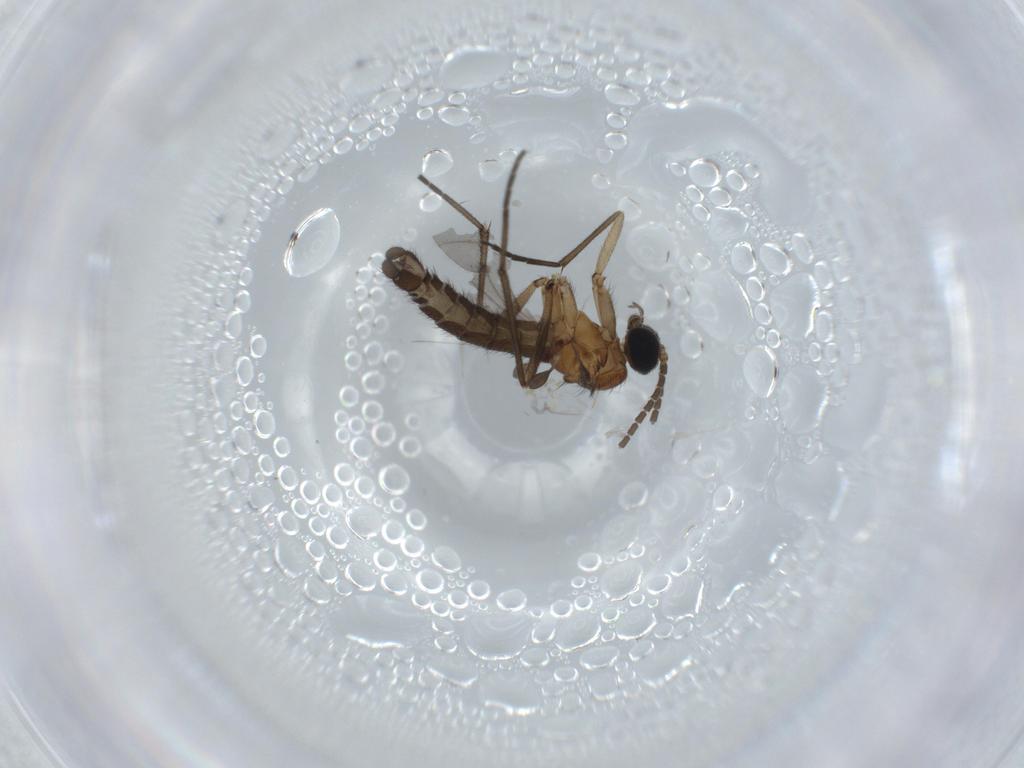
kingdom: Animalia
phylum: Arthropoda
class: Insecta
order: Diptera
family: Sciaridae
